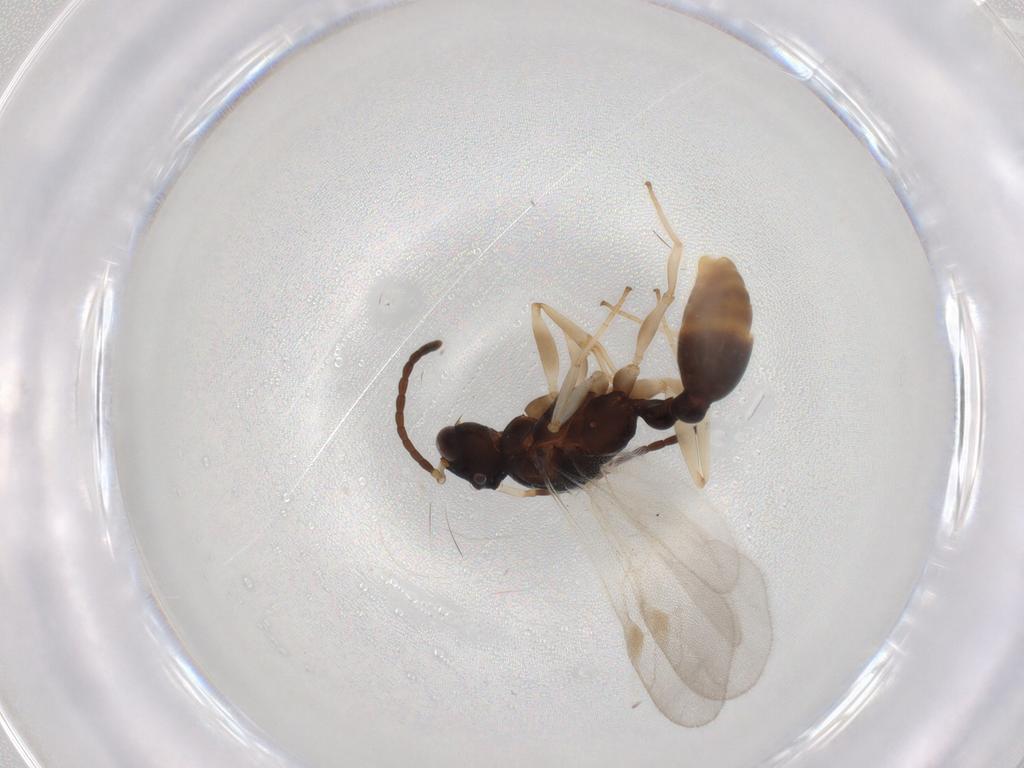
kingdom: Animalia
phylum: Arthropoda
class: Insecta
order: Hymenoptera
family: Formicidae
